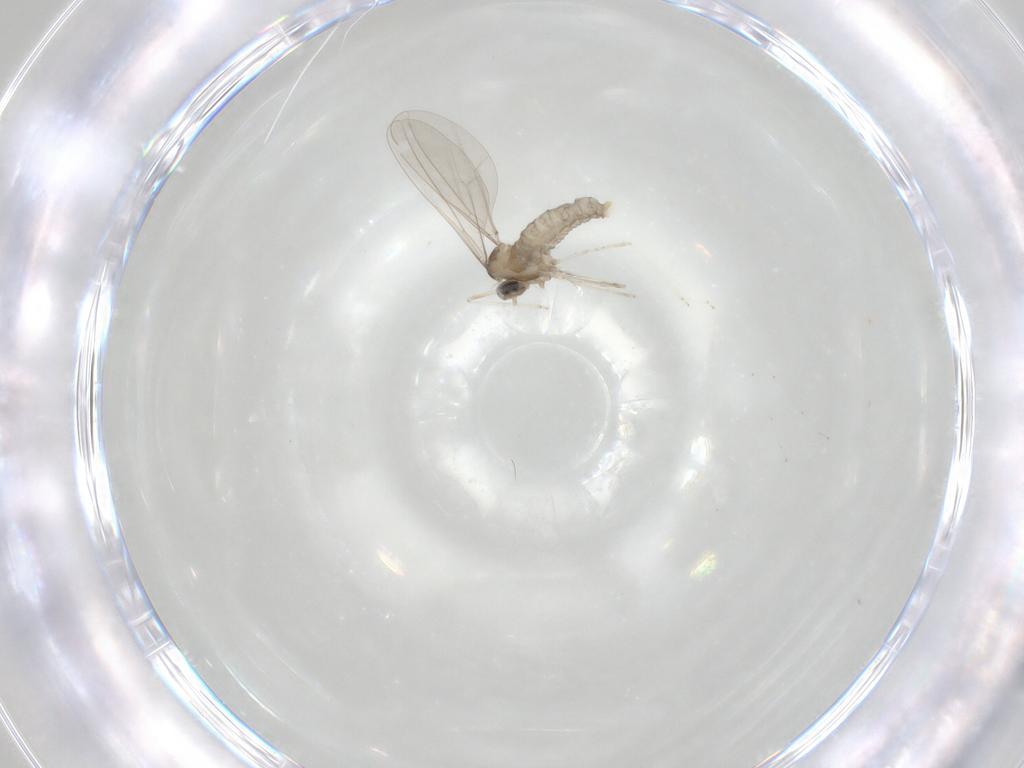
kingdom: Animalia
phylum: Arthropoda
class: Insecta
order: Diptera
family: Cecidomyiidae
